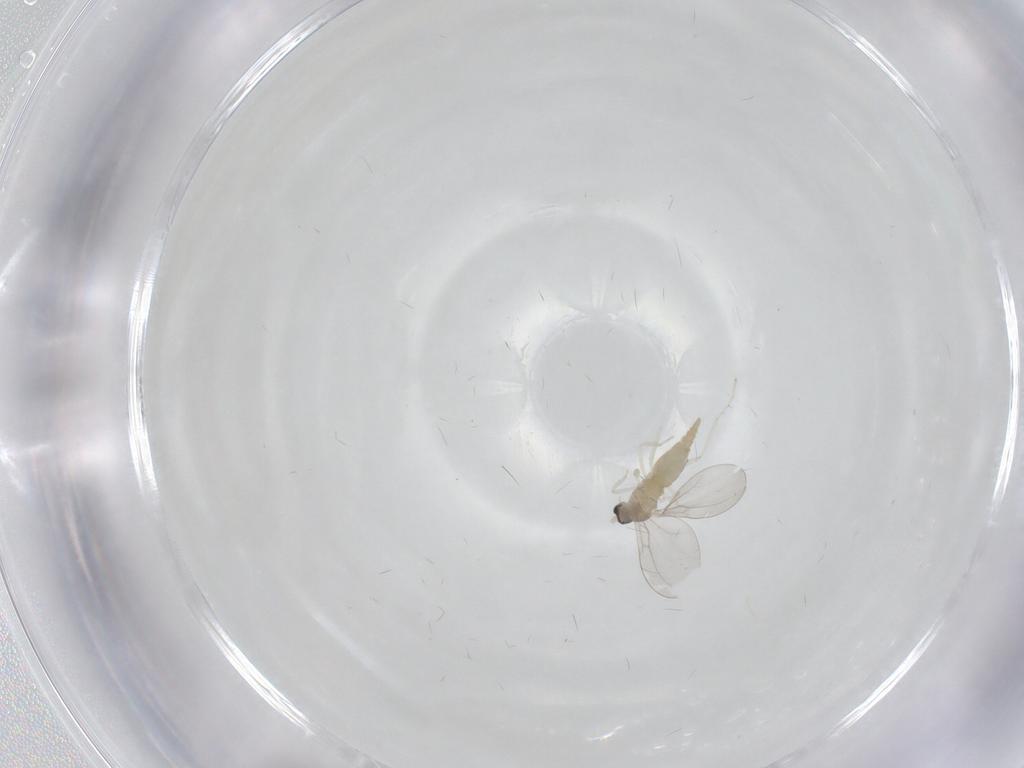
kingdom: Animalia
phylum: Arthropoda
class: Insecta
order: Diptera
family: Cecidomyiidae
